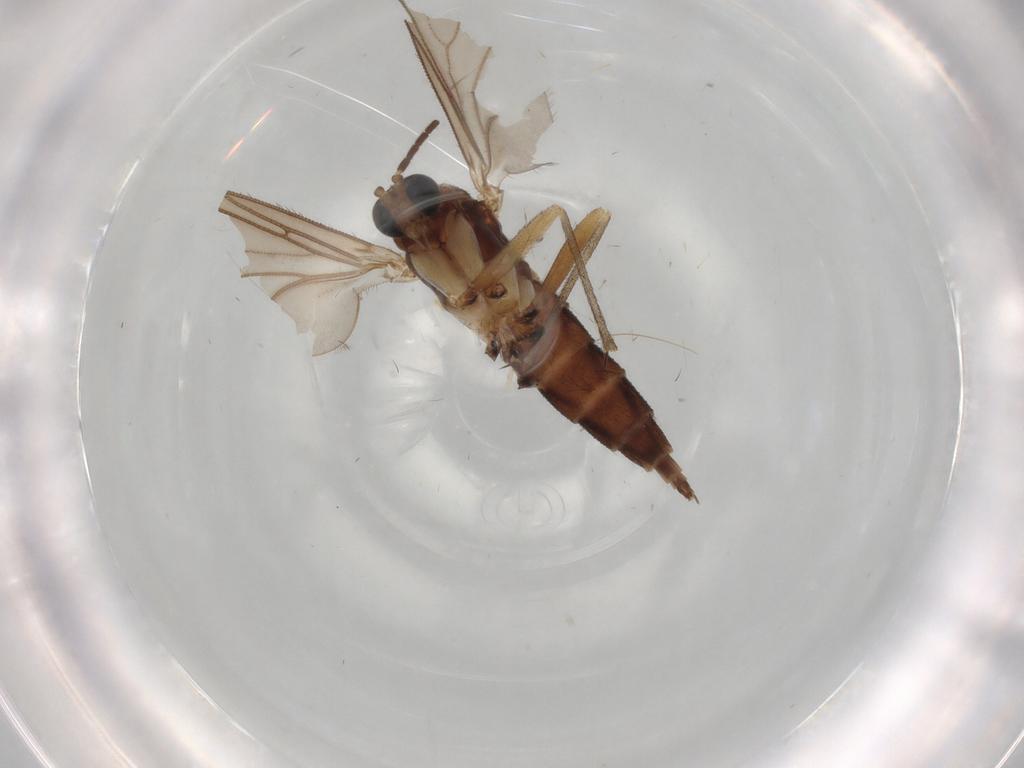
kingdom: Animalia
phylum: Arthropoda
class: Insecta
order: Diptera
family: Sciaridae
